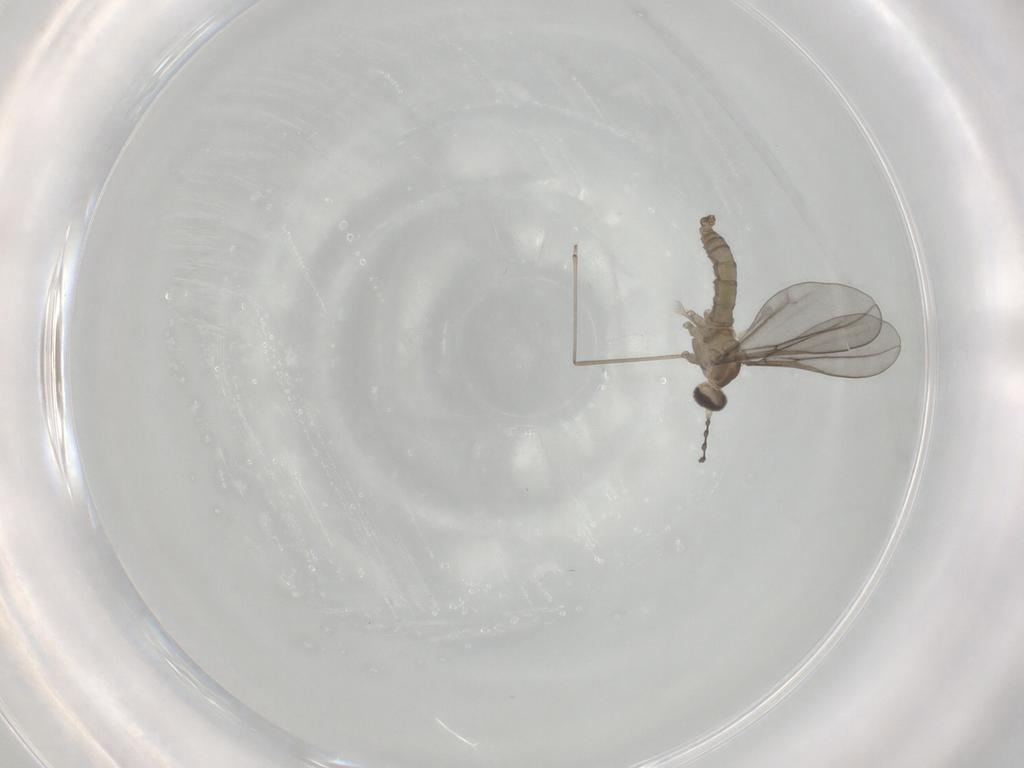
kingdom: Animalia
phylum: Arthropoda
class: Insecta
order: Diptera
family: Cecidomyiidae
